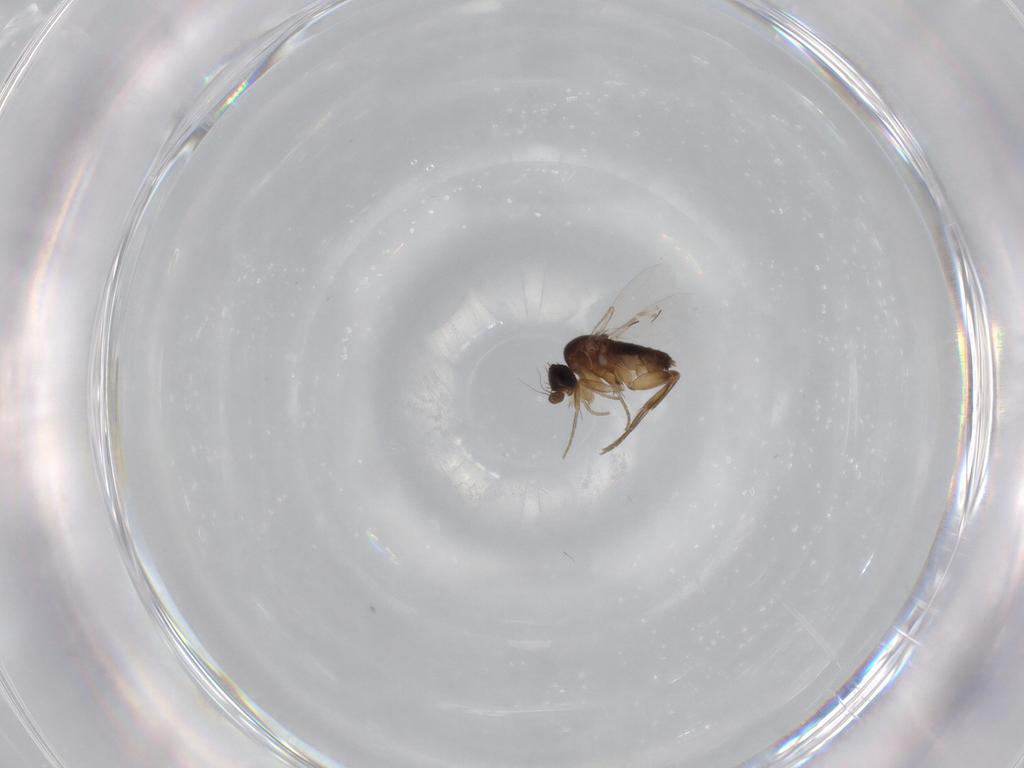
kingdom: Animalia
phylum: Arthropoda
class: Insecta
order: Diptera
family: Phoridae
